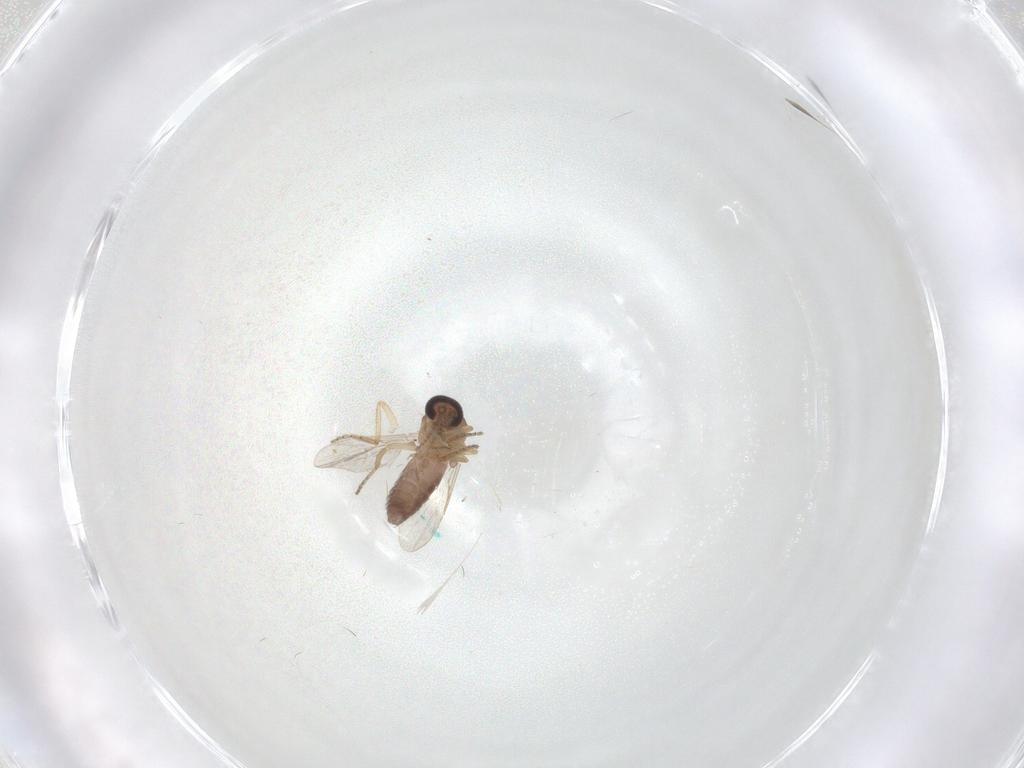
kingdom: Animalia
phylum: Arthropoda
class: Insecta
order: Diptera
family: Ceratopogonidae
